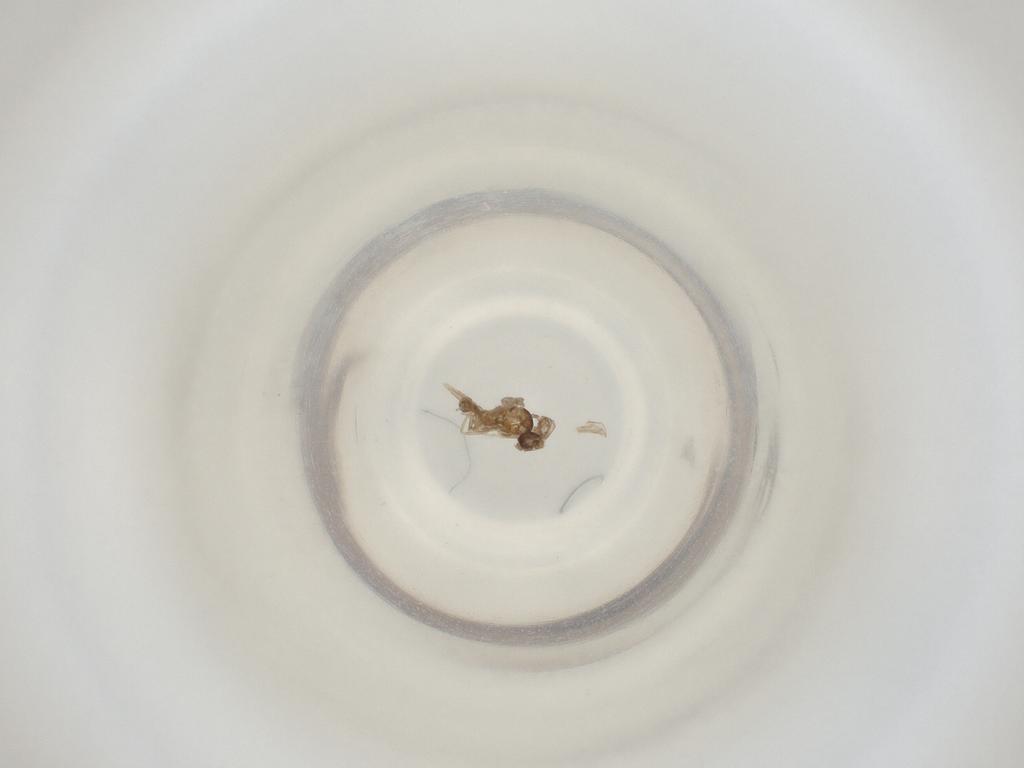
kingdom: Animalia
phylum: Arthropoda
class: Insecta
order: Diptera
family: Cecidomyiidae
